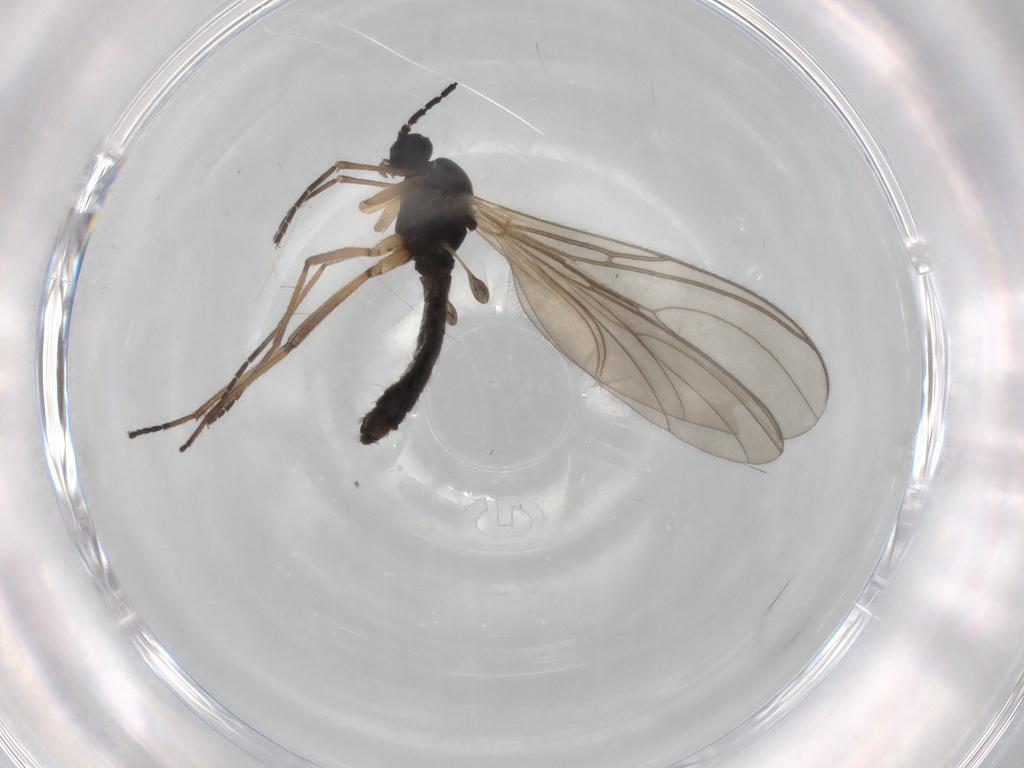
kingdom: Animalia
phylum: Arthropoda
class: Insecta
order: Diptera
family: Sciaridae
